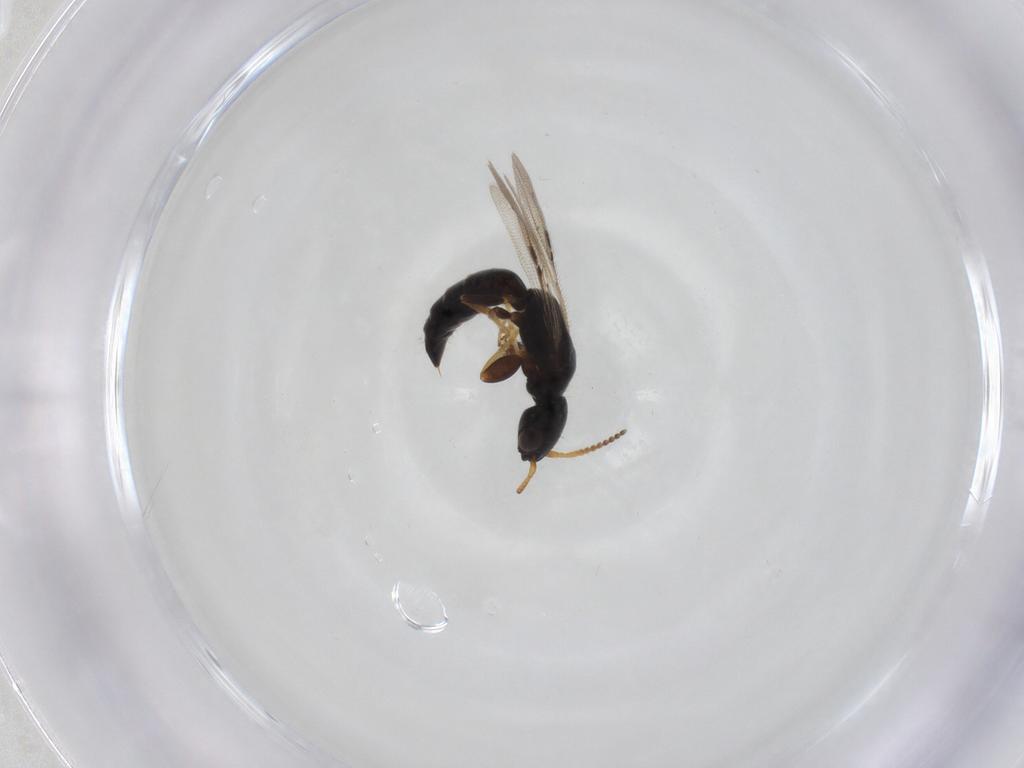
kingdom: Animalia
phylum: Arthropoda
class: Insecta
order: Hymenoptera
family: Bethylidae
